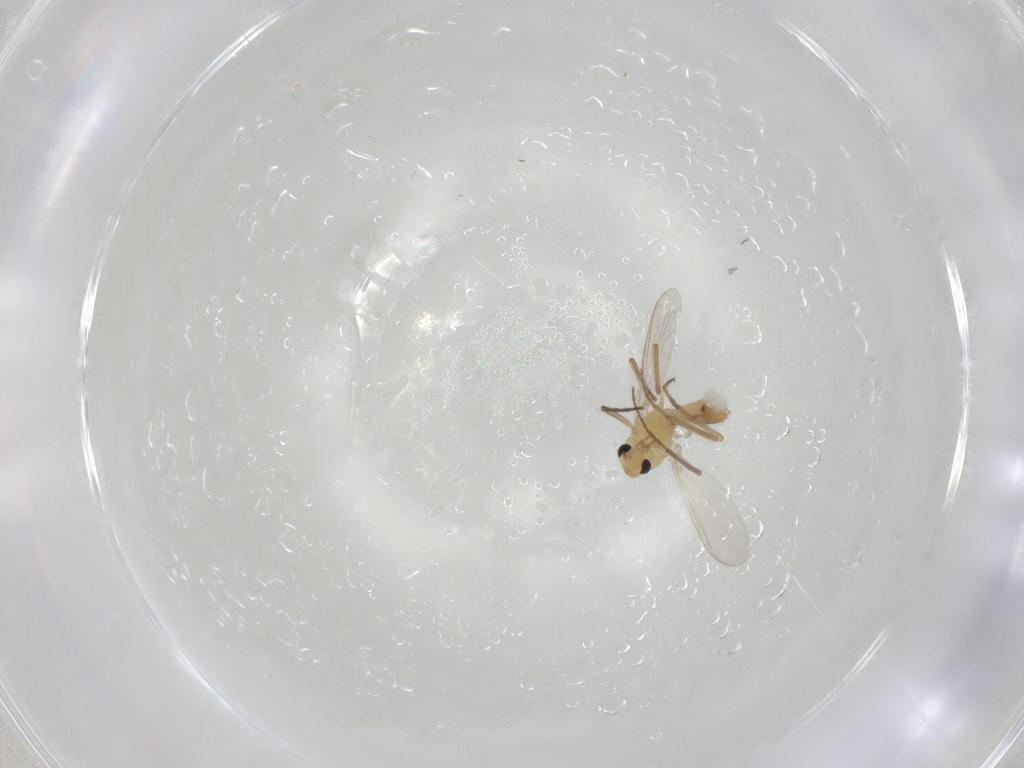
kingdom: Animalia
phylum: Arthropoda
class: Insecta
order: Diptera
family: Chironomidae
